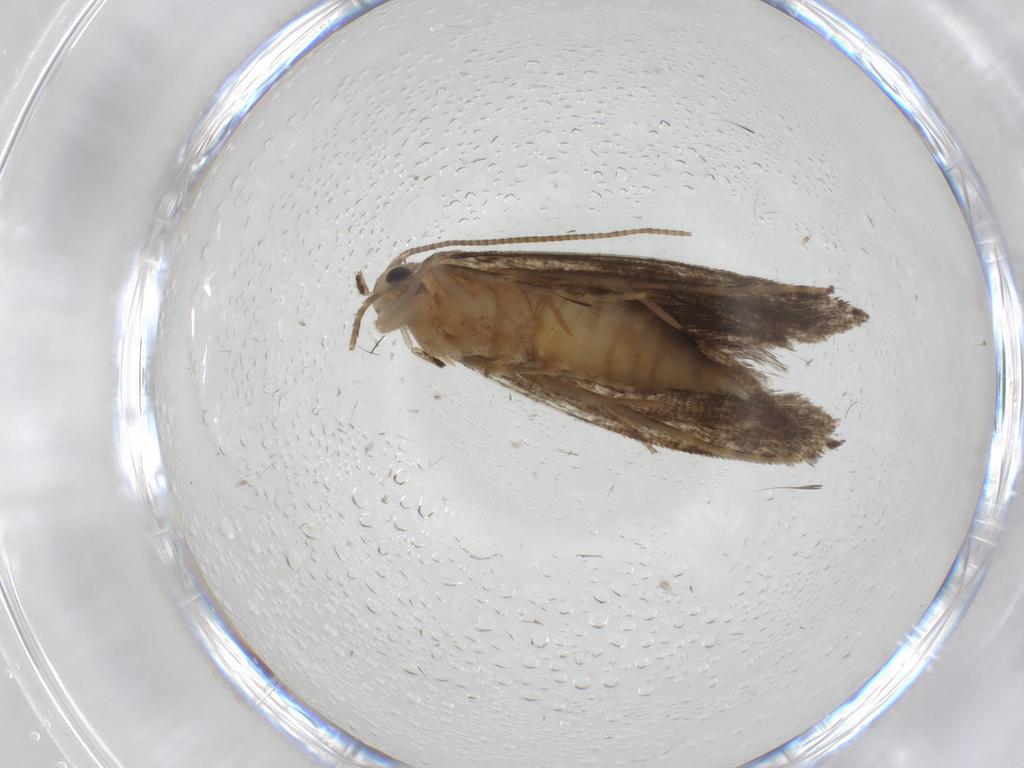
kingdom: Animalia
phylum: Arthropoda
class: Insecta
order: Lepidoptera
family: Tineidae
